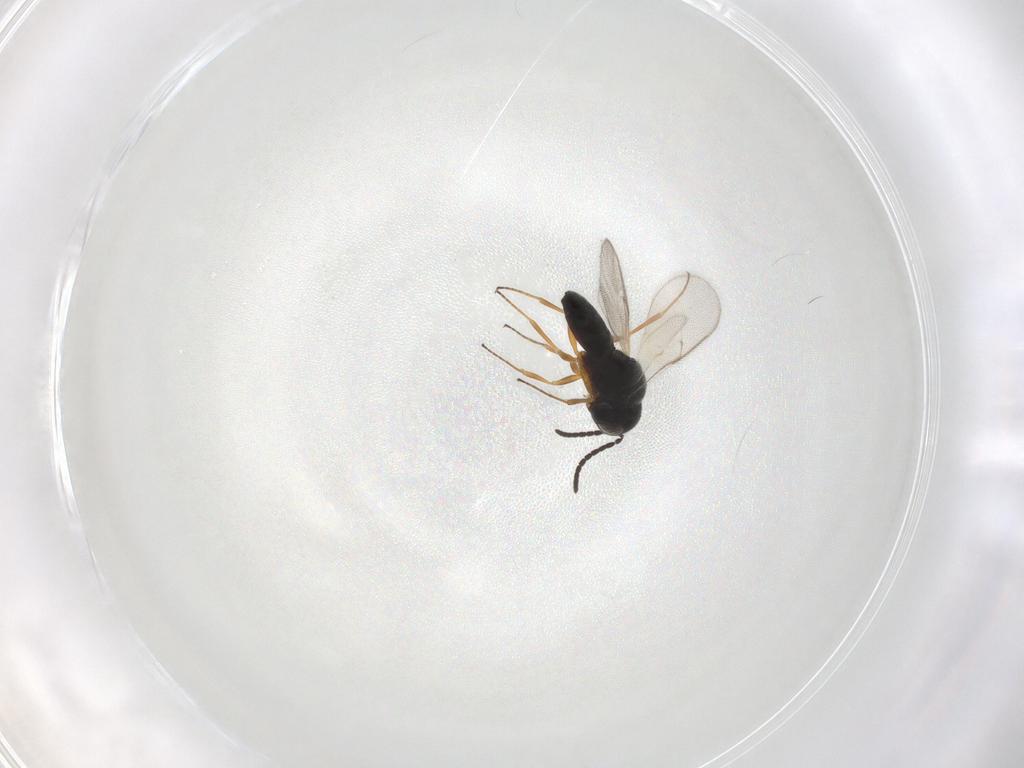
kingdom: Animalia
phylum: Arthropoda
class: Insecta
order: Hymenoptera
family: Scelionidae
